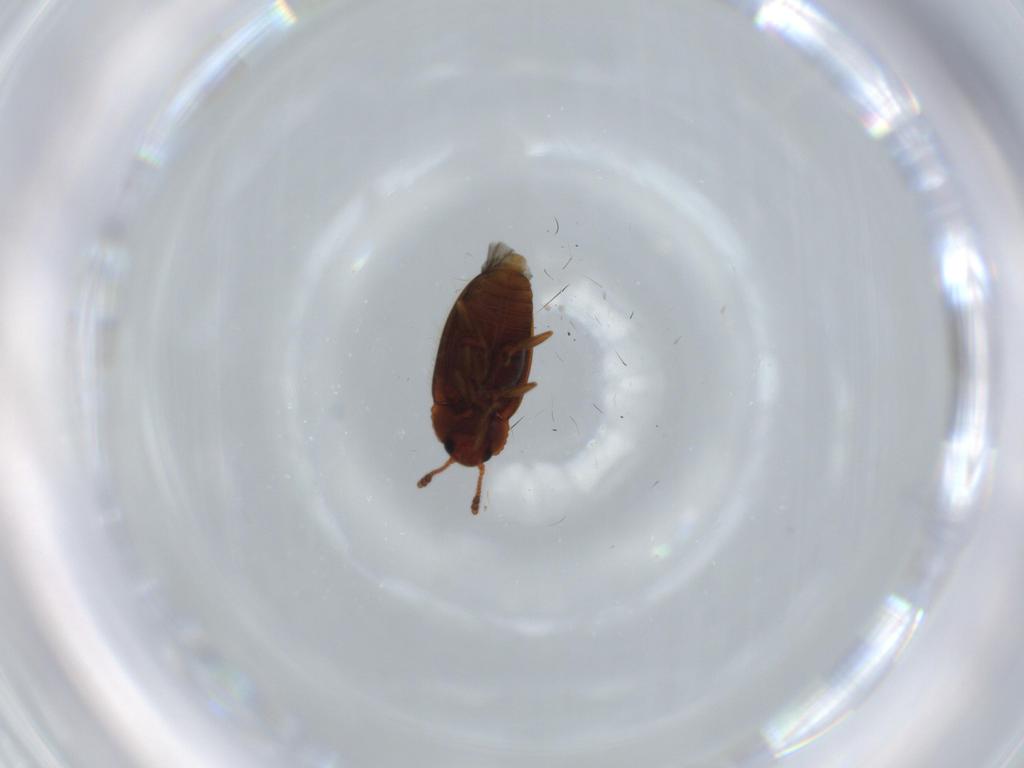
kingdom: Animalia
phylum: Arthropoda
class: Insecta
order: Coleoptera
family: Erotylidae
